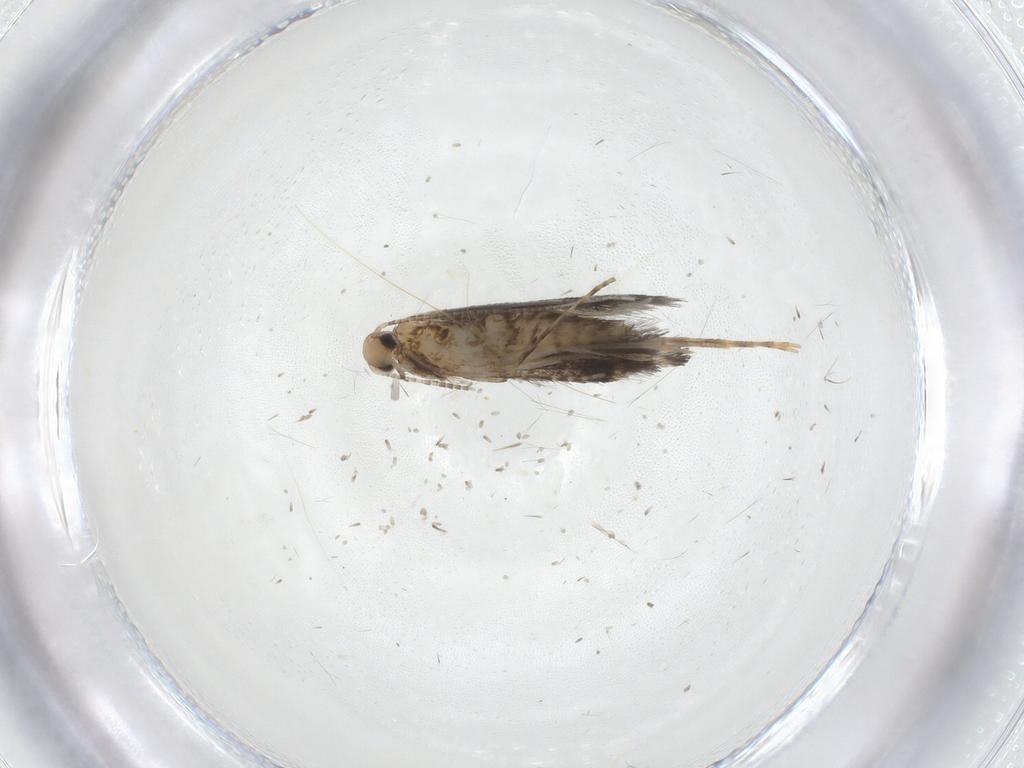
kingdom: Animalia
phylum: Arthropoda
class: Insecta
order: Lepidoptera
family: Gracillariidae
